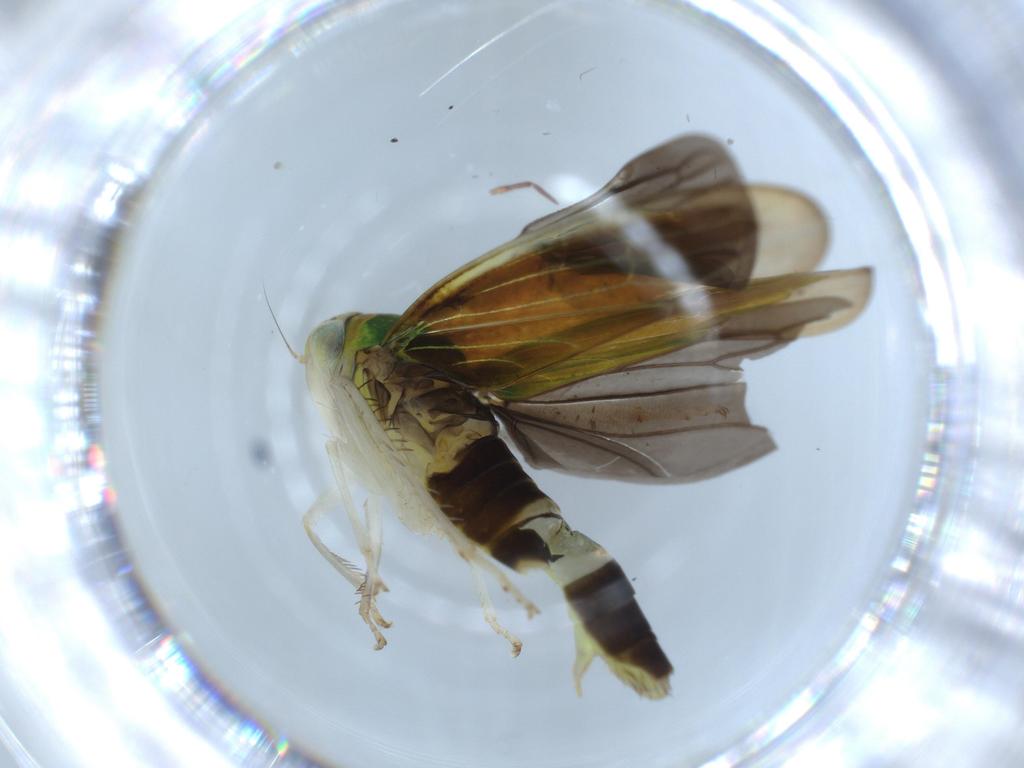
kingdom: Animalia
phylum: Arthropoda
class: Insecta
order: Hemiptera
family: Cicadellidae
